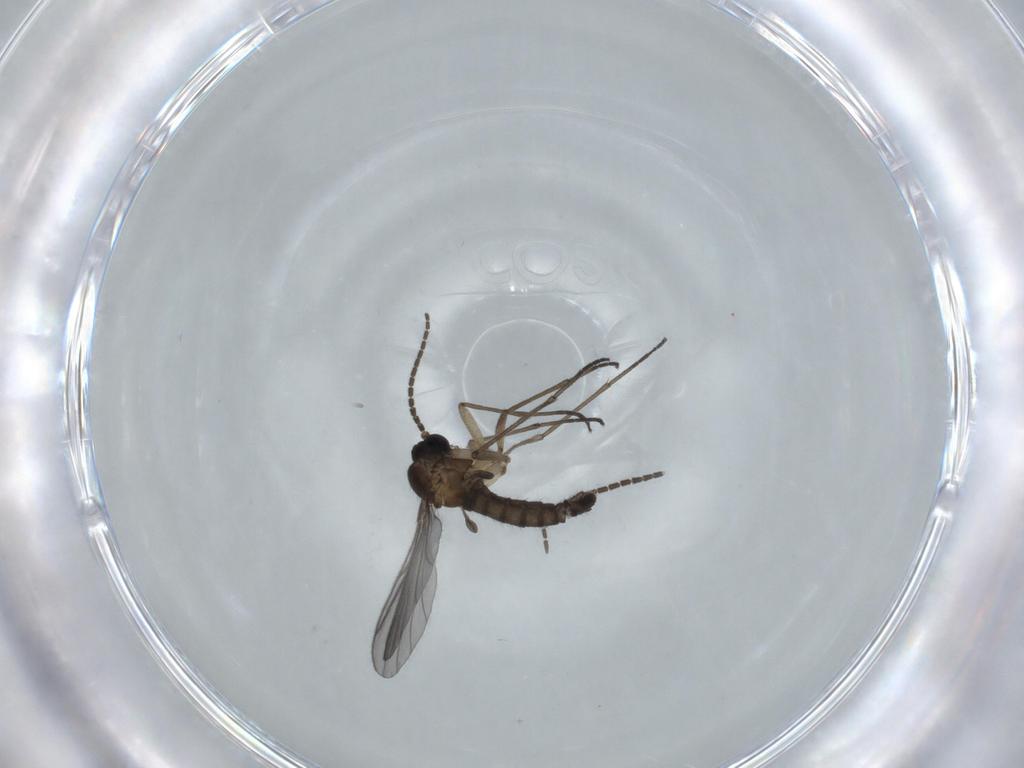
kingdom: Animalia
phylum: Arthropoda
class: Insecta
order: Diptera
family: Sciaridae
